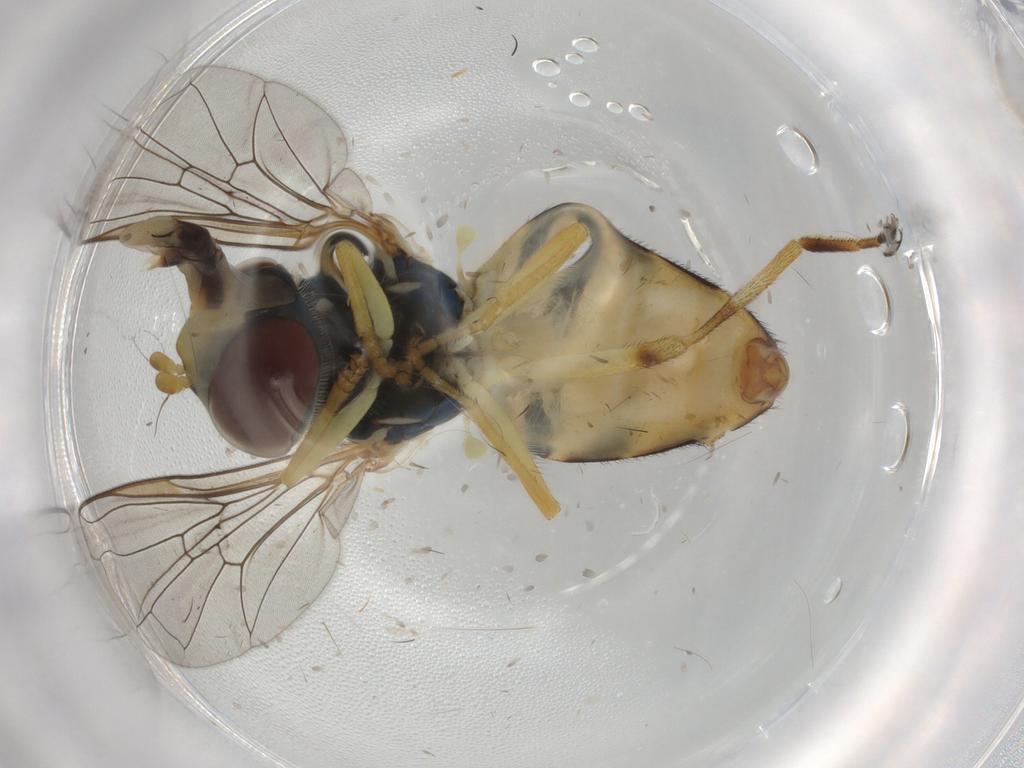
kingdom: Animalia
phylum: Arthropoda
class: Insecta
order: Diptera
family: Syrphidae
